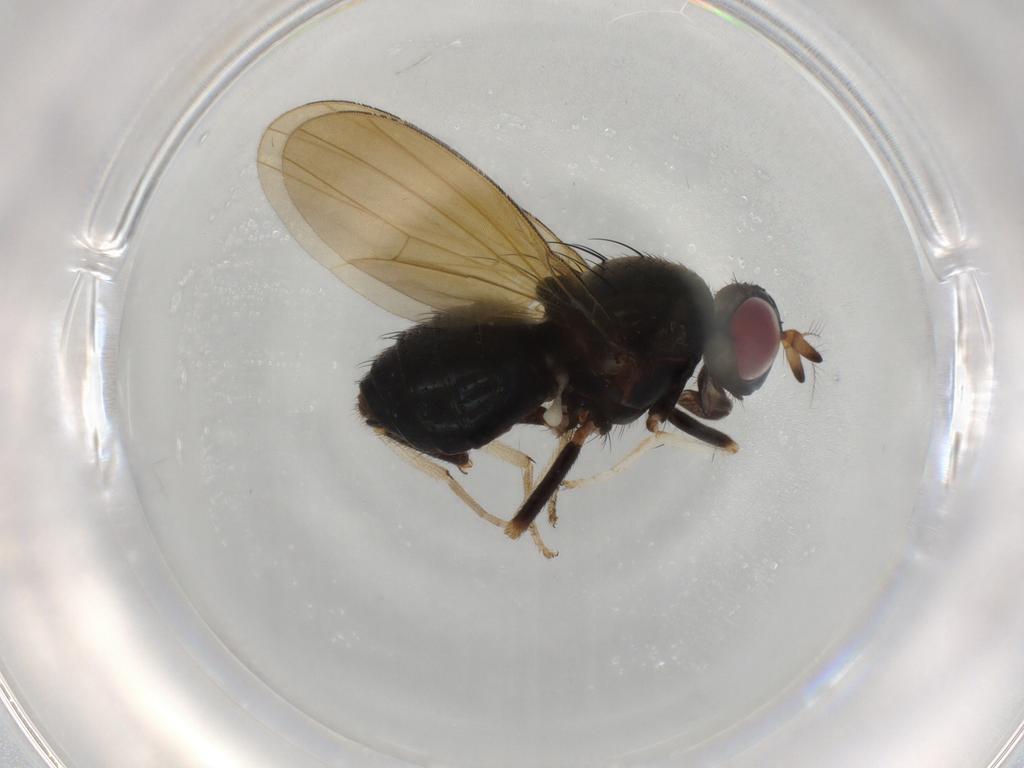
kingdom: Animalia
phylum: Arthropoda
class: Insecta
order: Diptera
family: Drosophilidae
